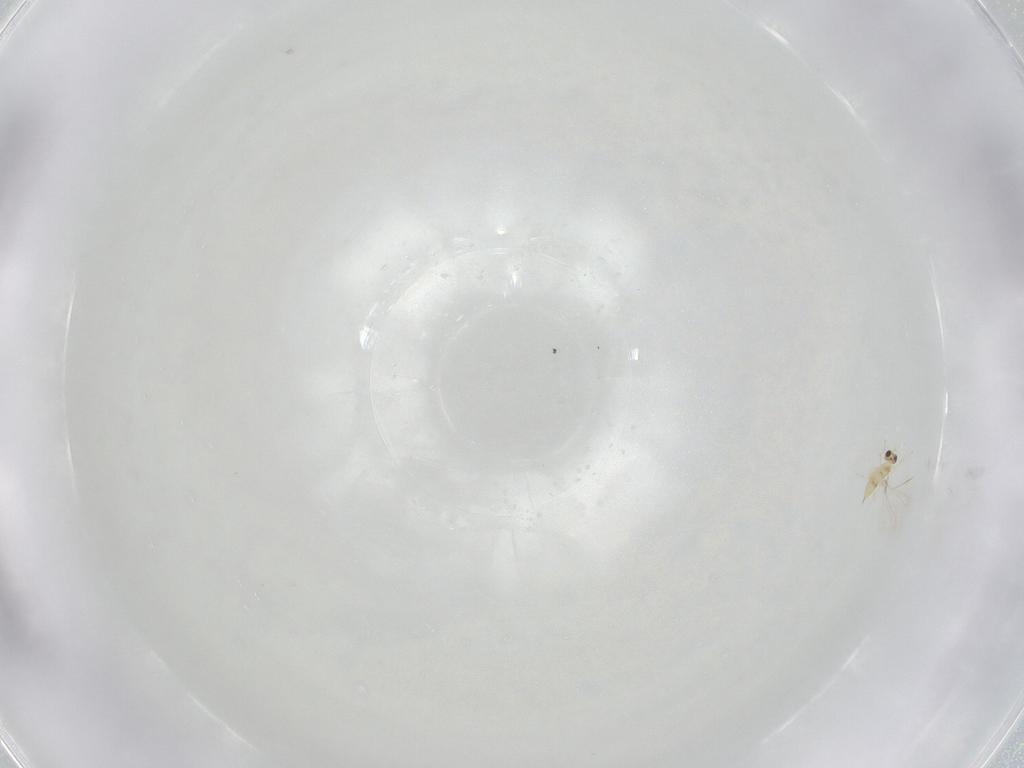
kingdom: Animalia
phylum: Arthropoda
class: Insecta
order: Hymenoptera
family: Mymaridae
